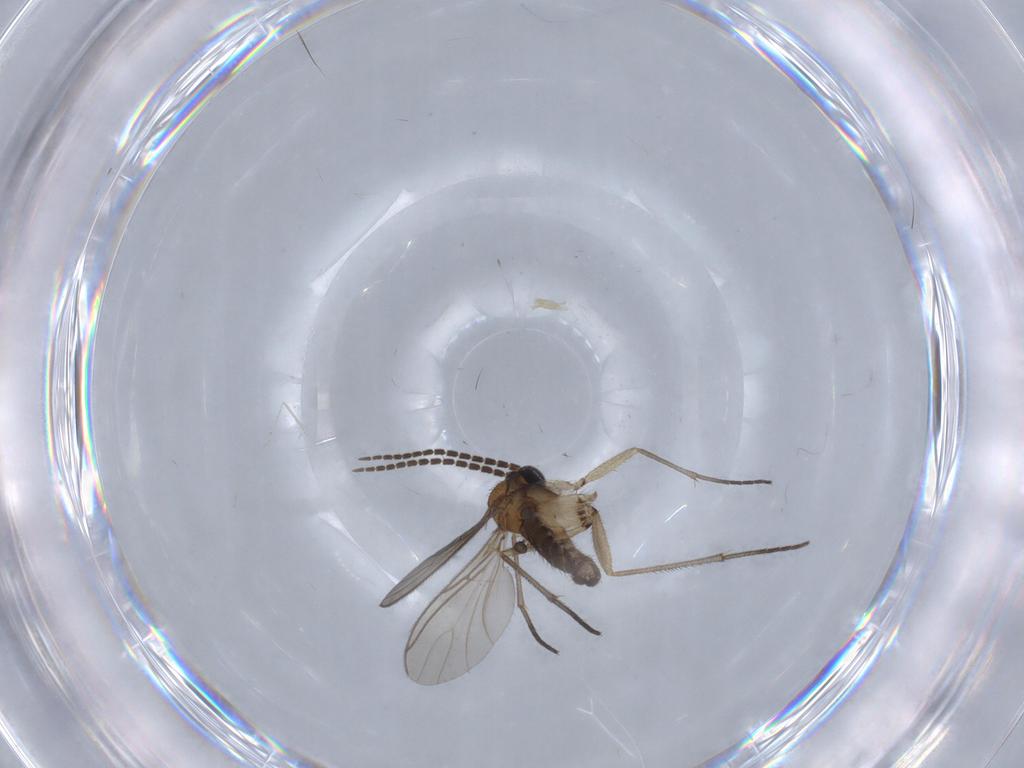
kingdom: Animalia
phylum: Arthropoda
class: Insecta
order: Diptera
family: Sciaridae
